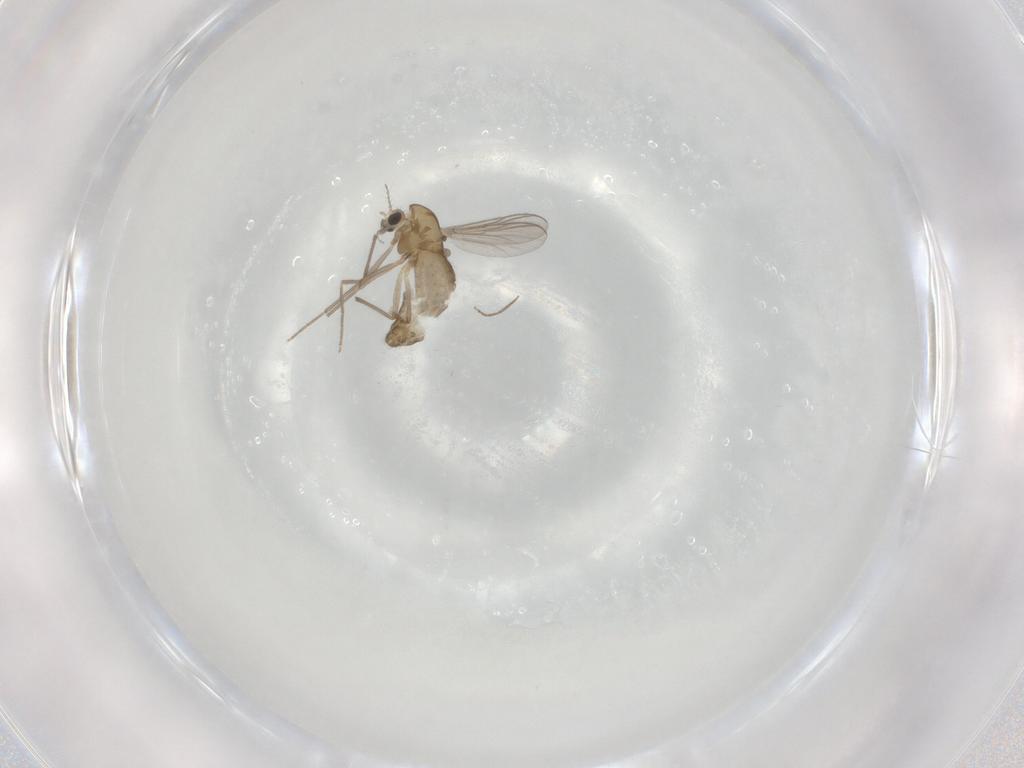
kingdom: Animalia
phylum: Arthropoda
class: Insecta
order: Diptera
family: Chironomidae
